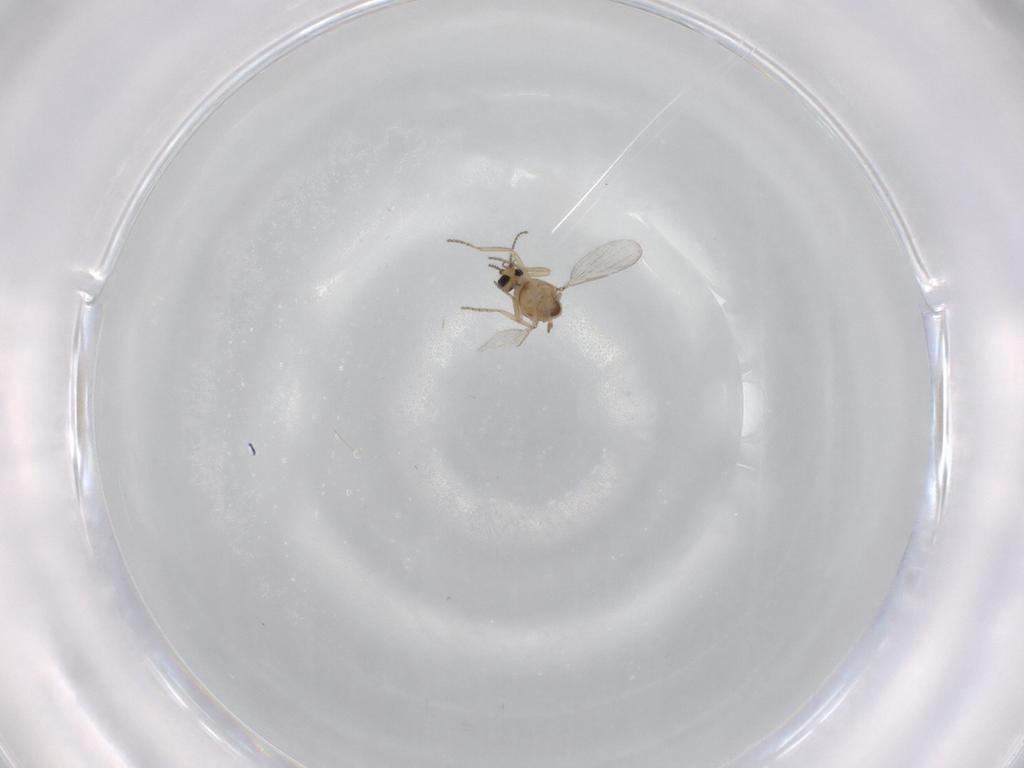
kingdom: Animalia
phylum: Arthropoda
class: Insecta
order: Diptera
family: Ceratopogonidae
